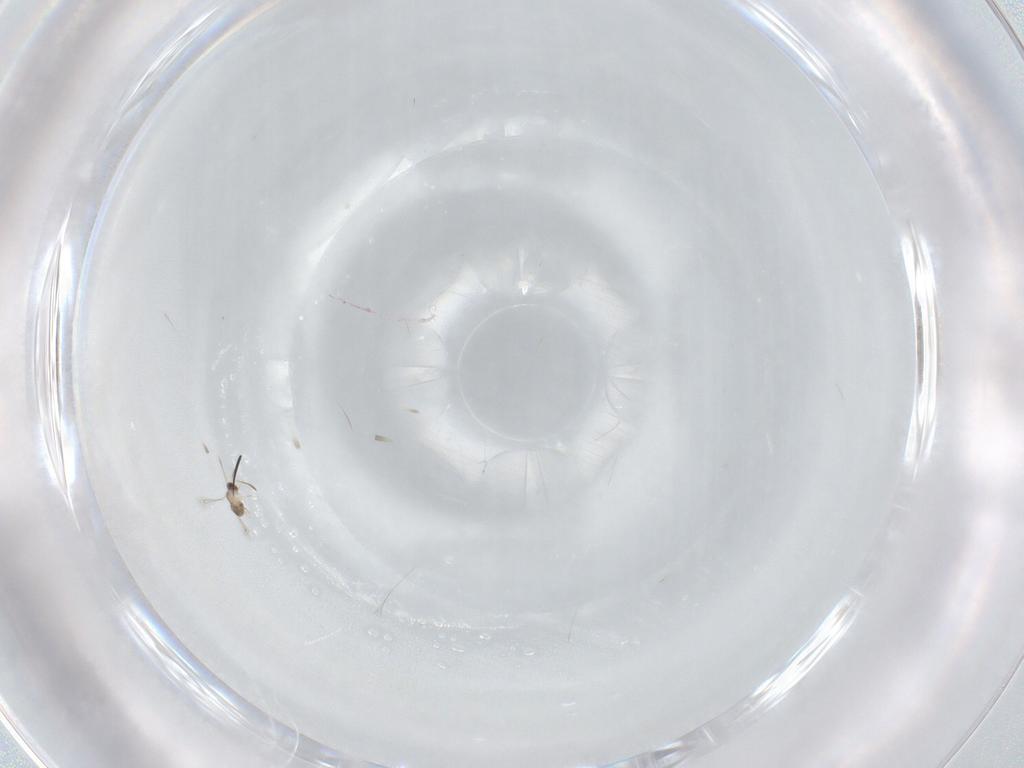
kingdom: Animalia
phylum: Arthropoda
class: Insecta
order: Hymenoptera
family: Mymaridae
